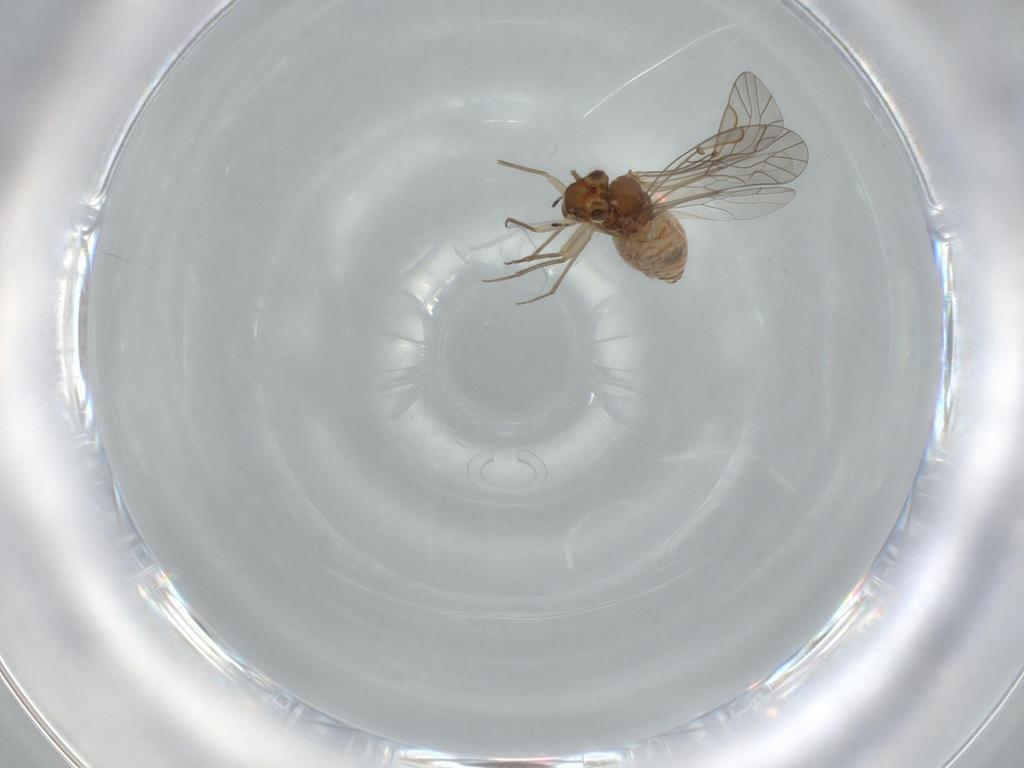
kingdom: Animalia
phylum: Arthropoda
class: Insecta
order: Psocodea
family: Lachesillidae
